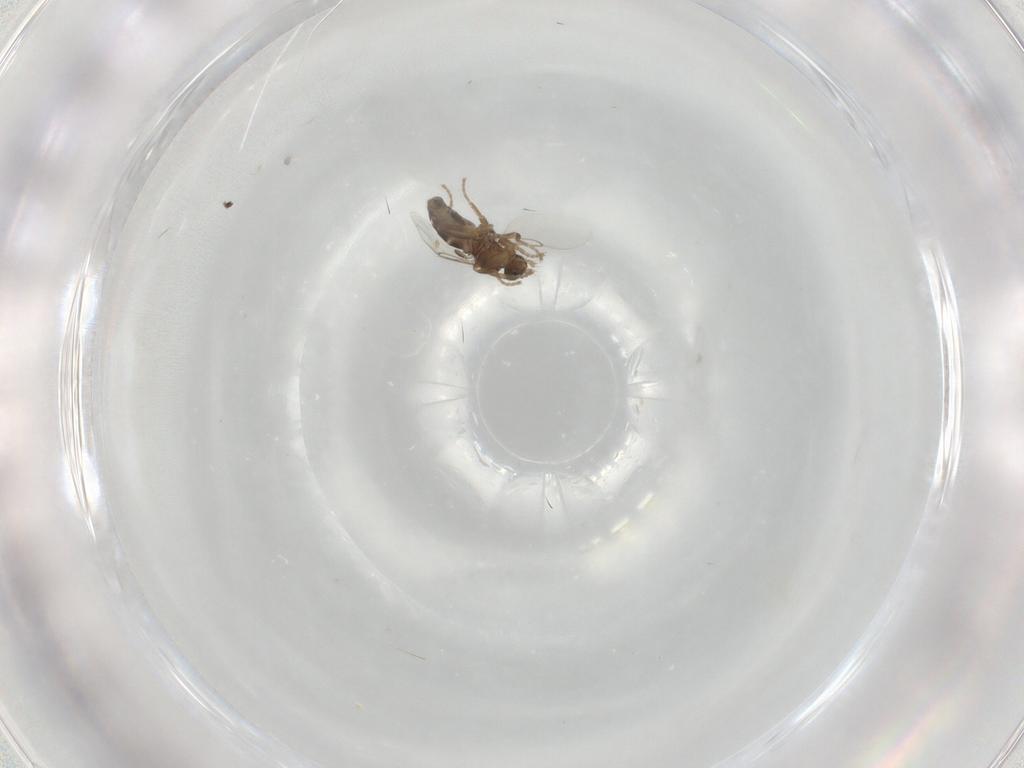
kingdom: Animalia
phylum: Arthropoda
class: Insecta
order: Diptera
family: Phoridae
